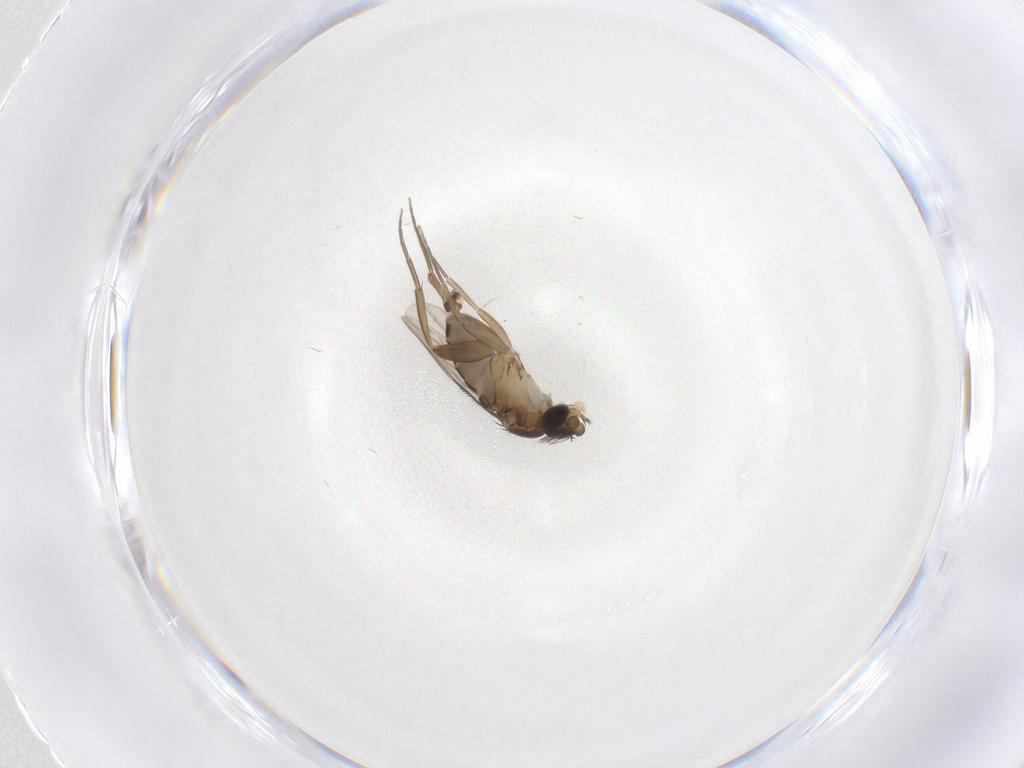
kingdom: Animalia
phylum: Arthropoda
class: Insecta
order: Diptera
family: Phoridae
